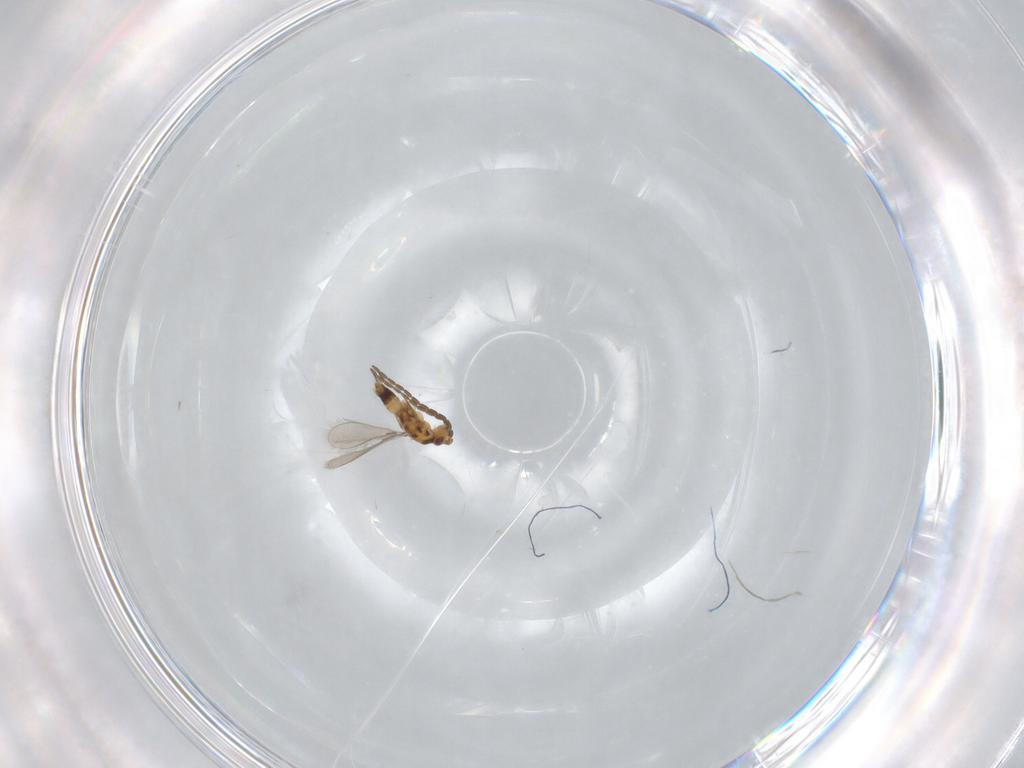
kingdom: Animalia
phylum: Arthropoda
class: Insecta
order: Hymenoptera
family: Mymaridae
